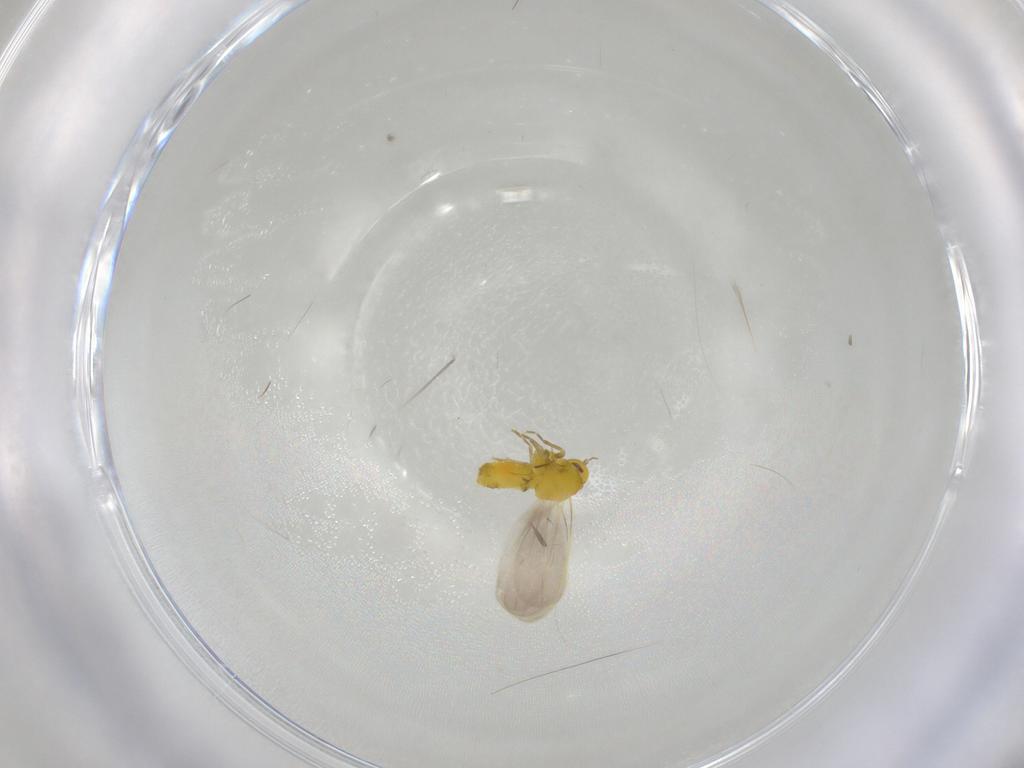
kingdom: Animalia
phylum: Arthropoda
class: Insecta
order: Hemiptera
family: Aleyrodidae
